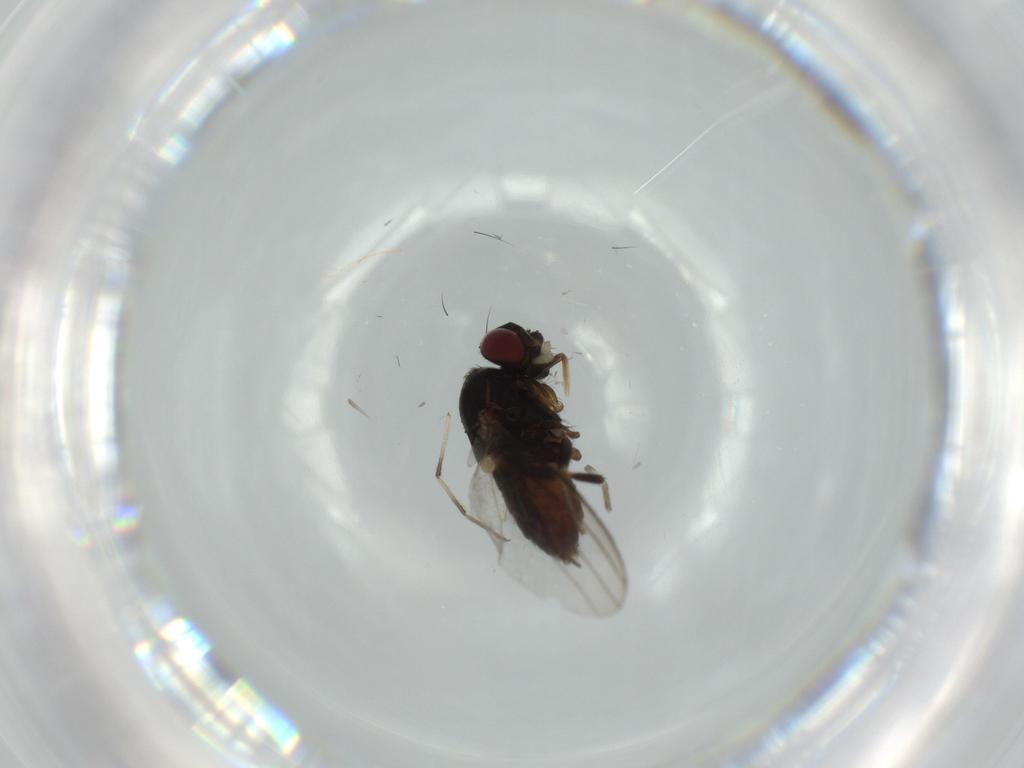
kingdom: Animalia
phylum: Arthropoda
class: Insecta
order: Diptera
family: Milichiidae
